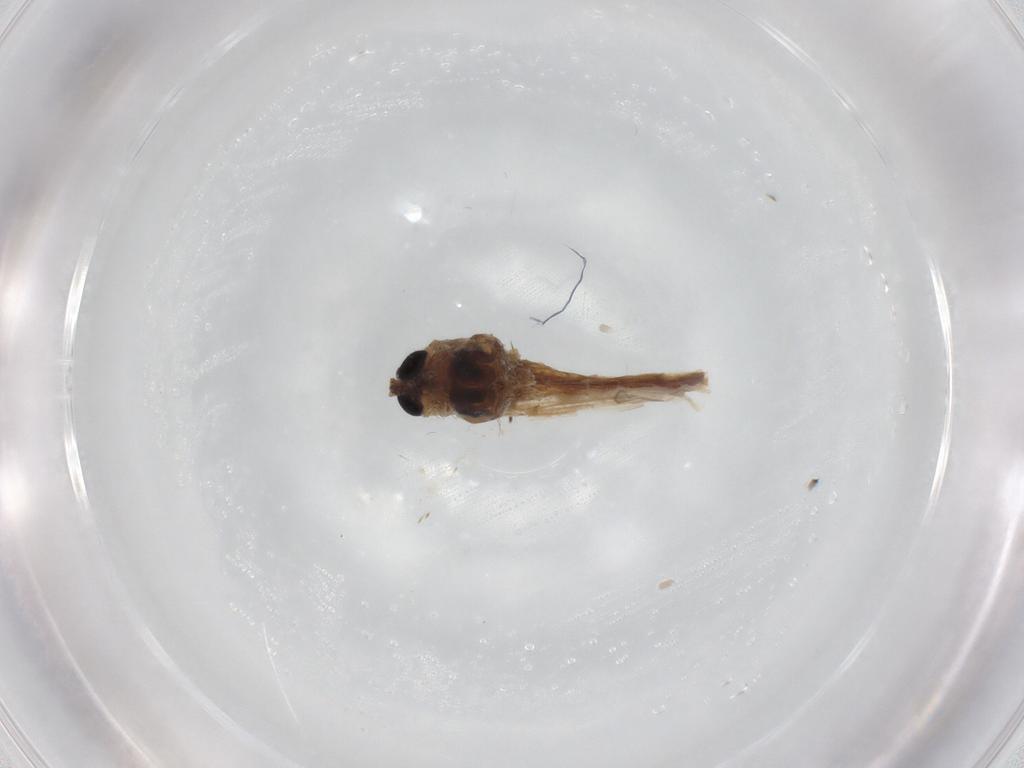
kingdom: Animalia
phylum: Arthropoda
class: Insecta
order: Diptera
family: Chironomidae
